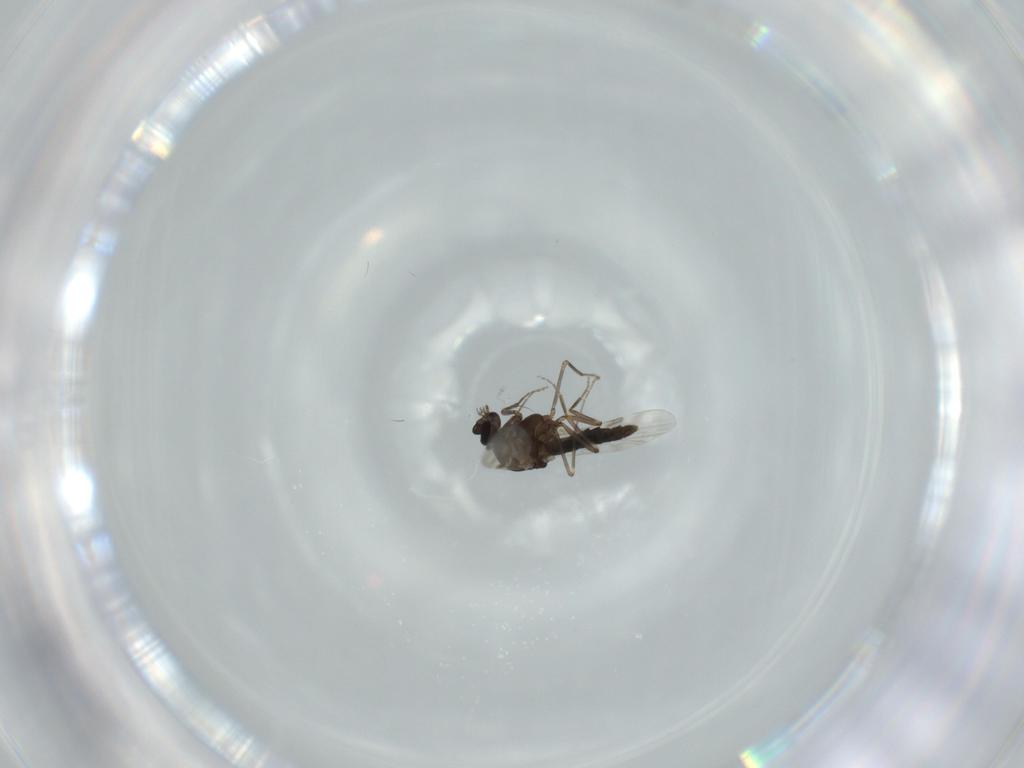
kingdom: Animalia
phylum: Arthropoda
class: Insecta
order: Diptera
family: Ceratopogonidae
